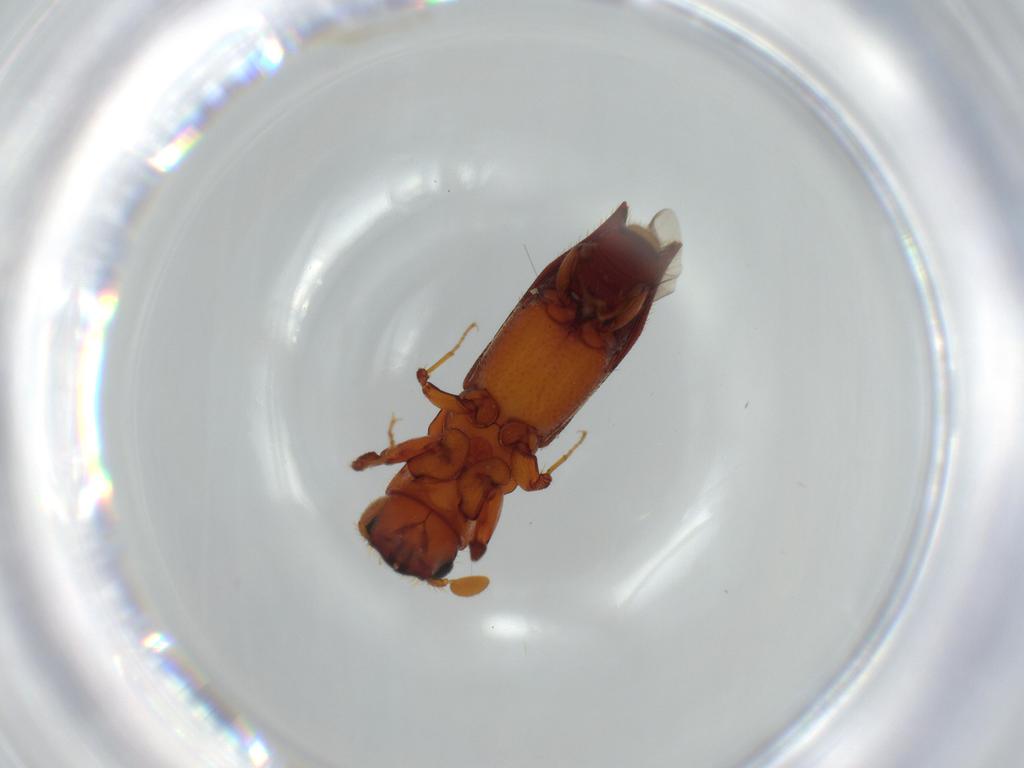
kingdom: Animalia
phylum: Arthropoda
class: Insecta
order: Coleoptera
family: Curculionidae
